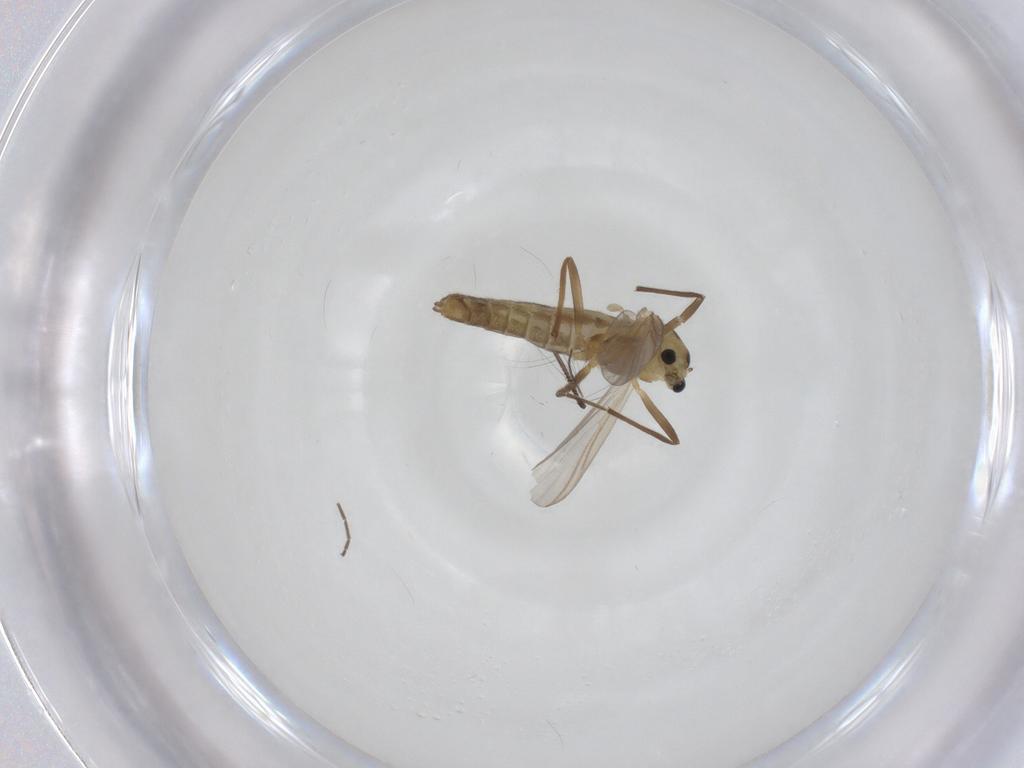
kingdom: Animalia
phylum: Arthropoda
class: Insecta
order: Diptera
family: Chironomidae
